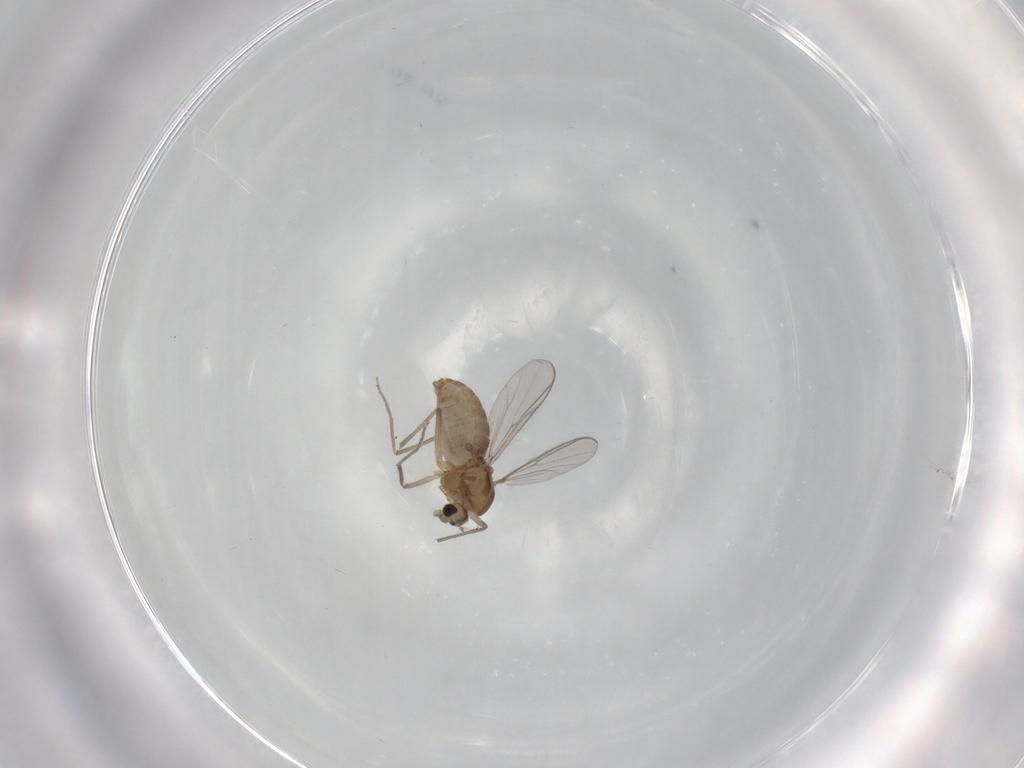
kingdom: Animalia
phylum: Arthropoda
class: Insecta
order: Diptera
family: Chironomidae
